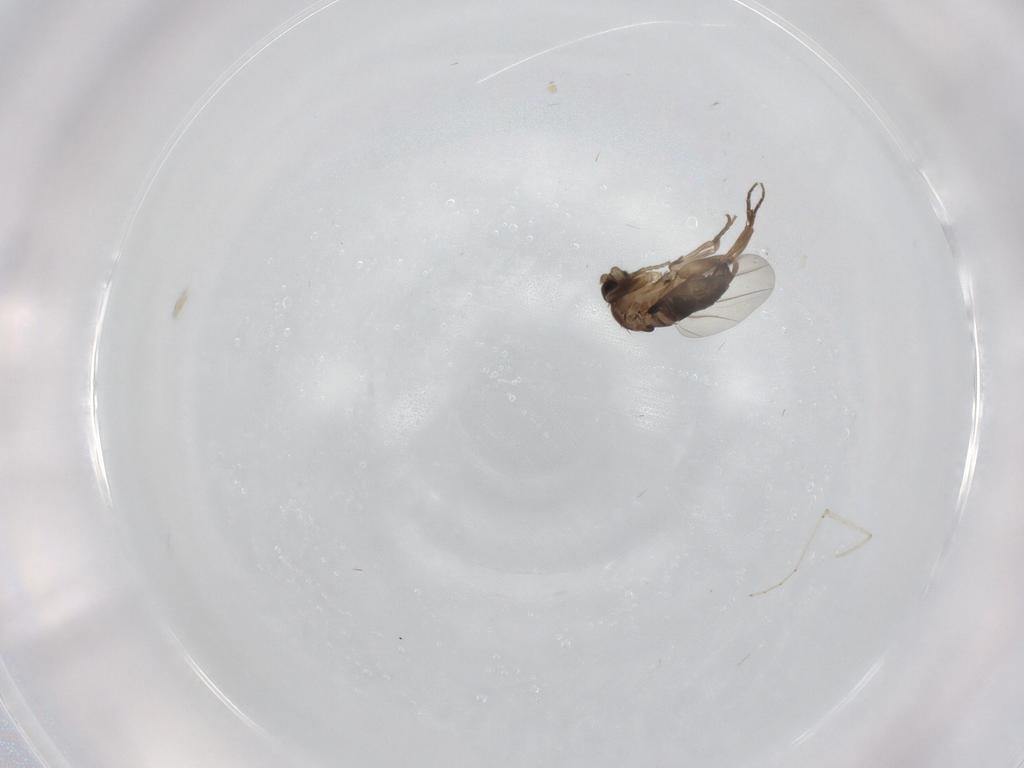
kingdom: Animalia
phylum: Arthropoda
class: Insecta
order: Diptera
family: Cecidomyiidae
